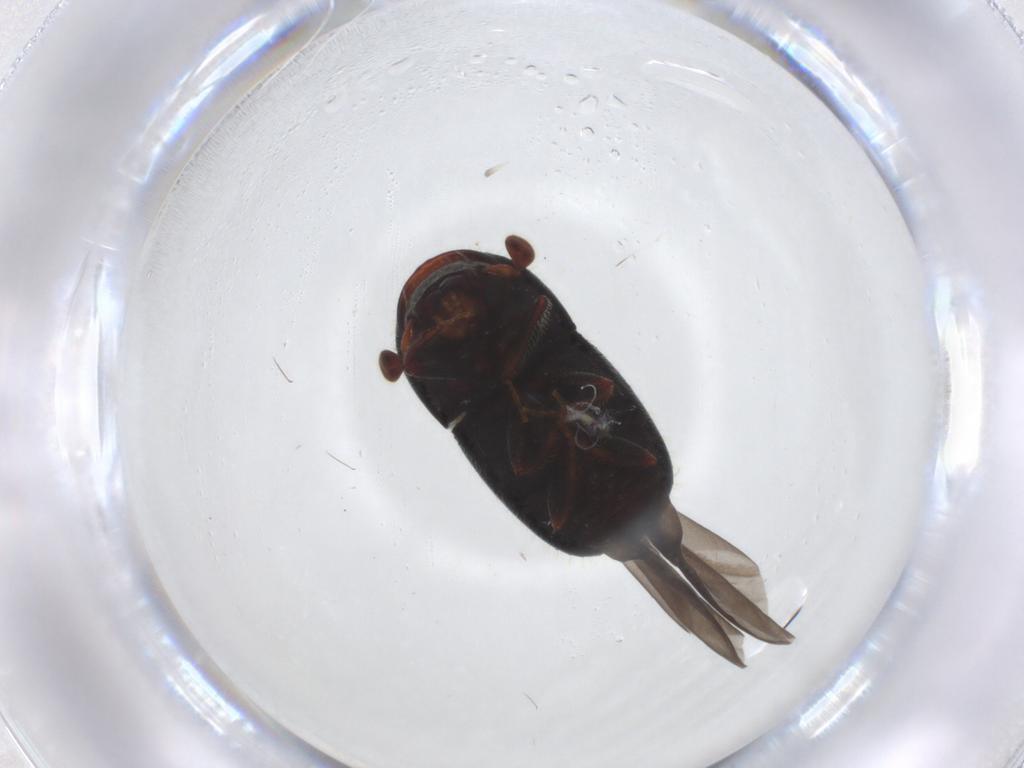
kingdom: Animalia
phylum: Arthropoda
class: Insecta
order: Coleoptera
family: Curculionidae
